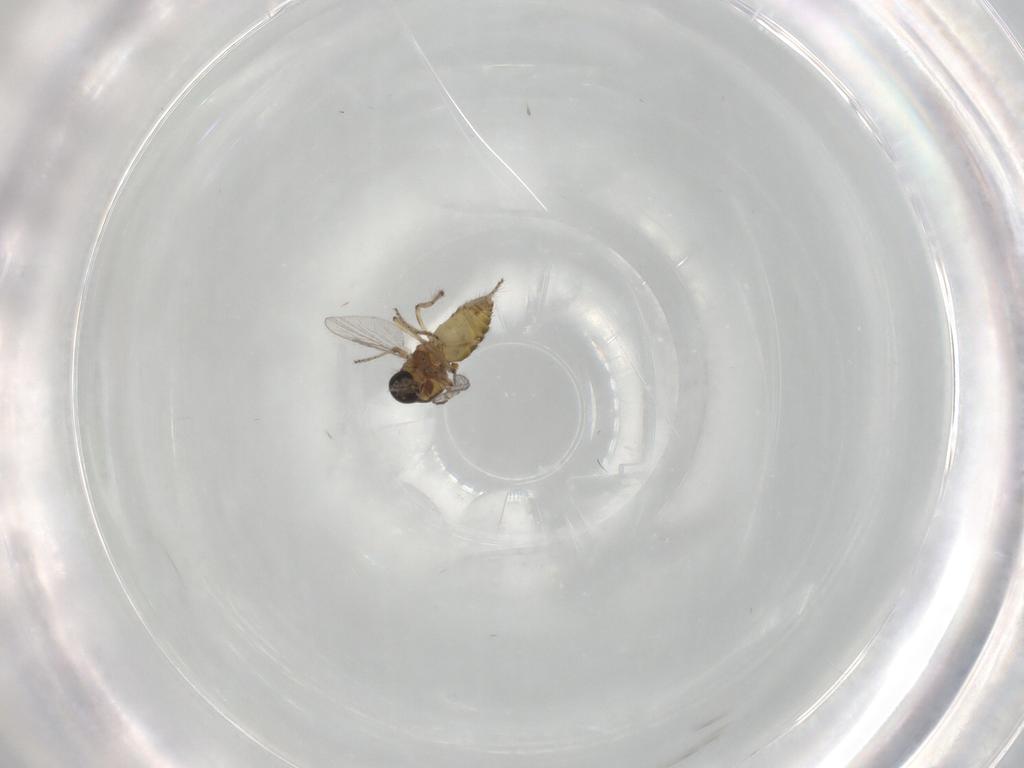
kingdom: Animalia
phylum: Arthropoda
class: Insecta
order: Diptera
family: Ceratopogonidae
